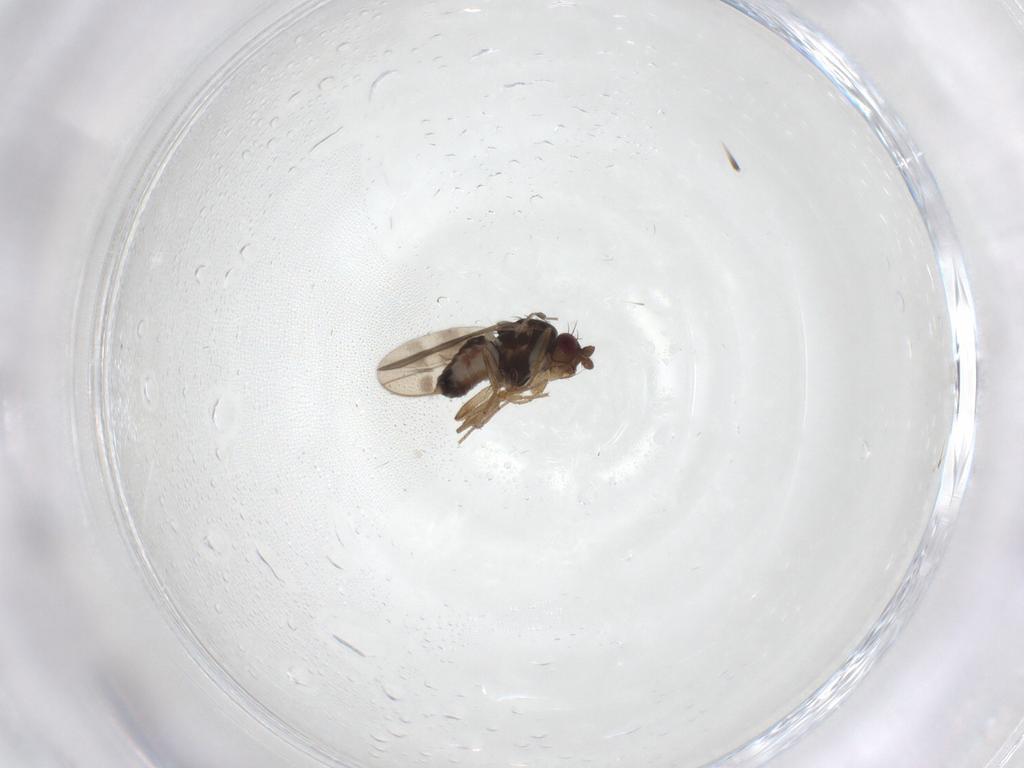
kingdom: Animalia
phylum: Arthropoda
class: Insecta
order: Diptera
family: Sphaeroceridae
